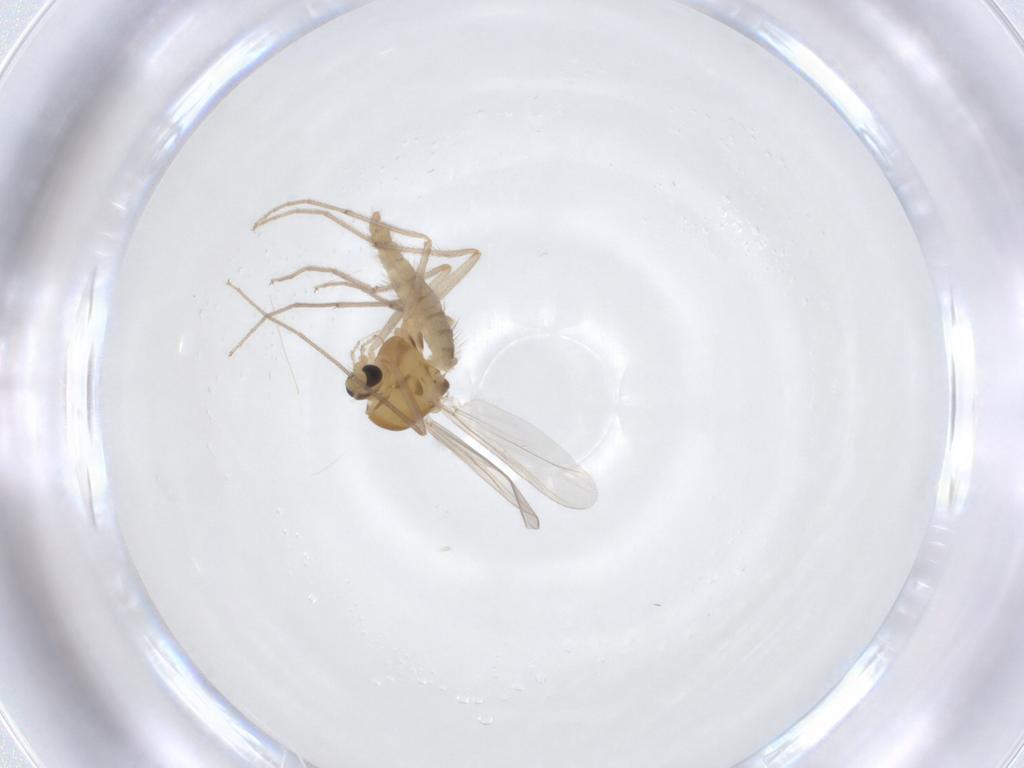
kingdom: Animalia
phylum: Arthropoda
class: Insecta
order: Diptera
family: Chironomidae
